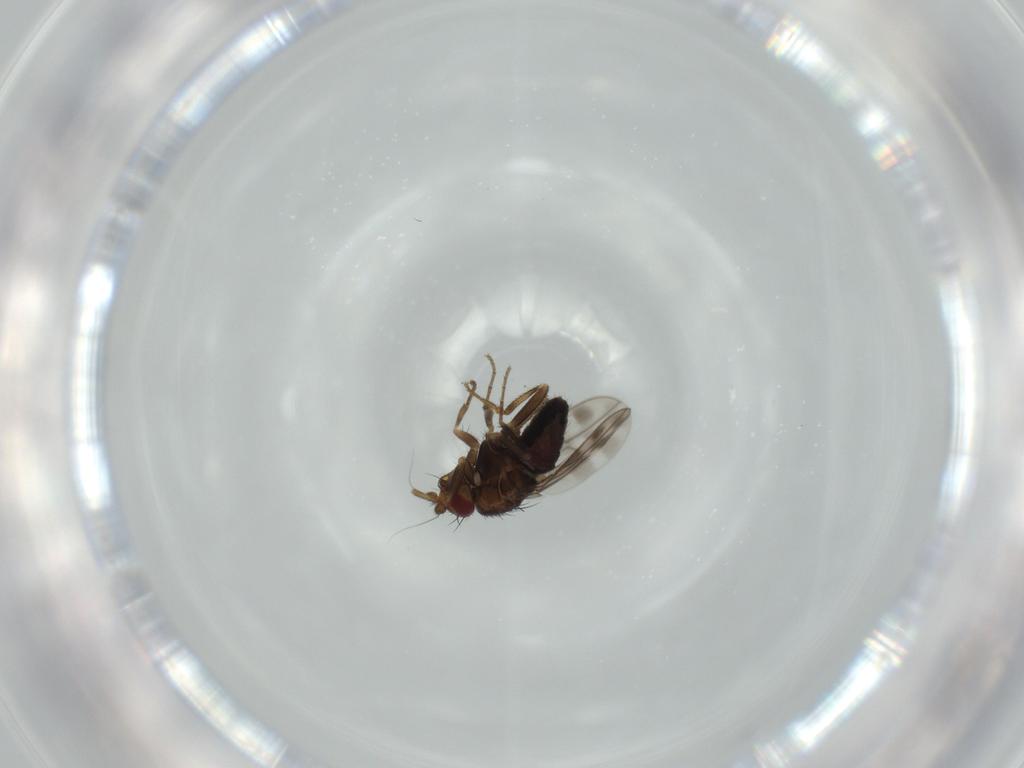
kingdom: Animalia
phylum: Arthropoda
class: Insecta
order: Diptera
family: Sphaeroceridae
